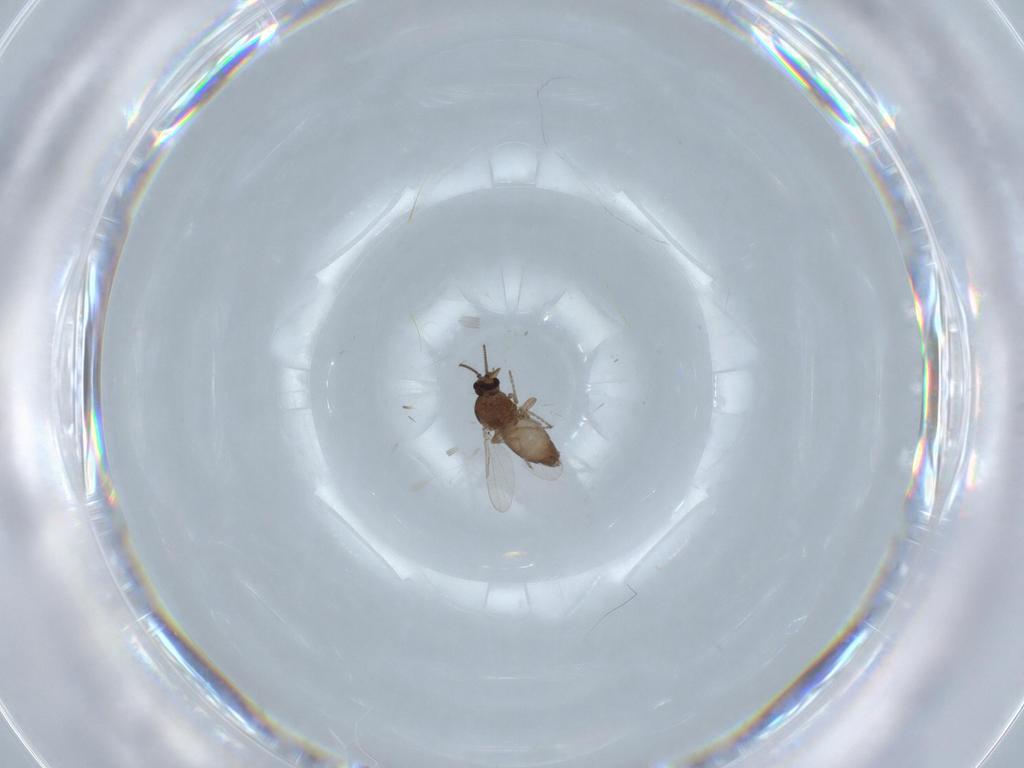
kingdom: Animalia
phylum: Arthropoda
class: Insecta
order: Diptera
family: Ceratopogonidae
